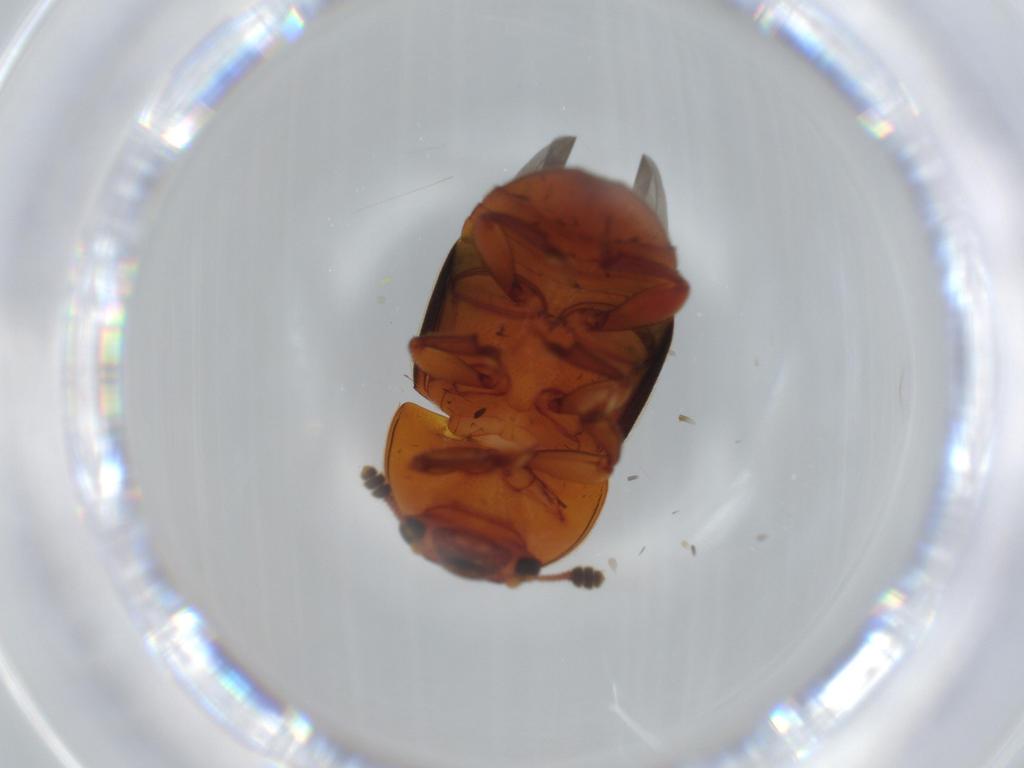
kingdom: Animalia
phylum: Arthropoda
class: Insecta
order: Coleoptera
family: Nitidulidae
